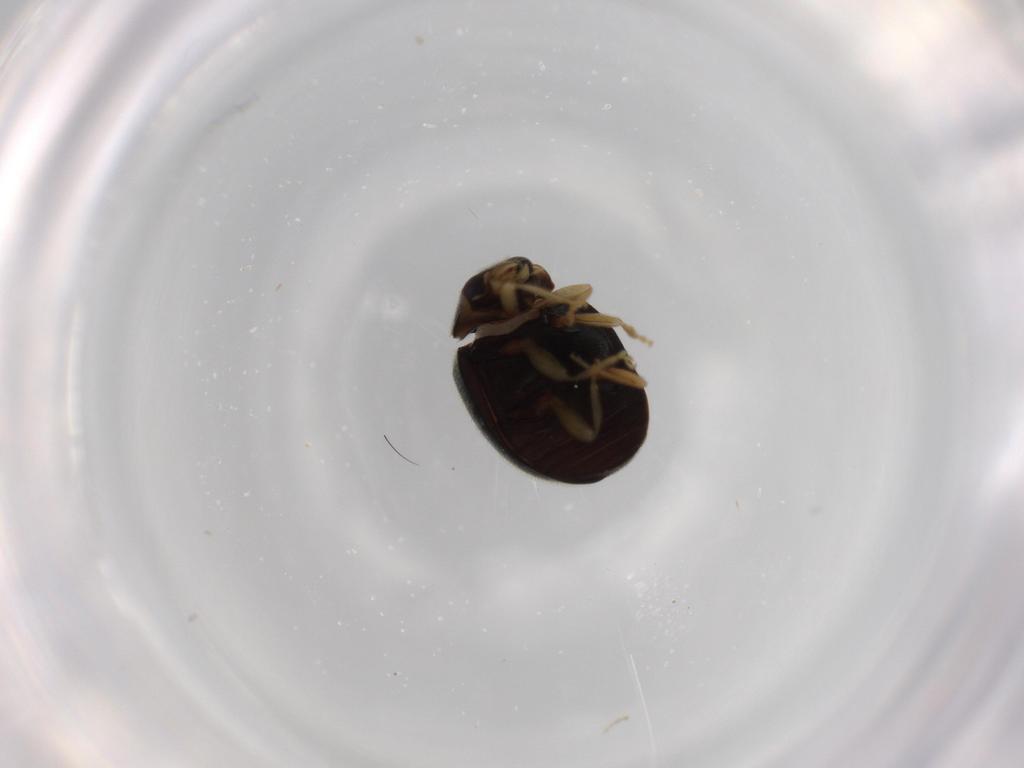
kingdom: Animalia
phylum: Arthropoda
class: Insecta
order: Coleoptera
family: Coccinellidae
